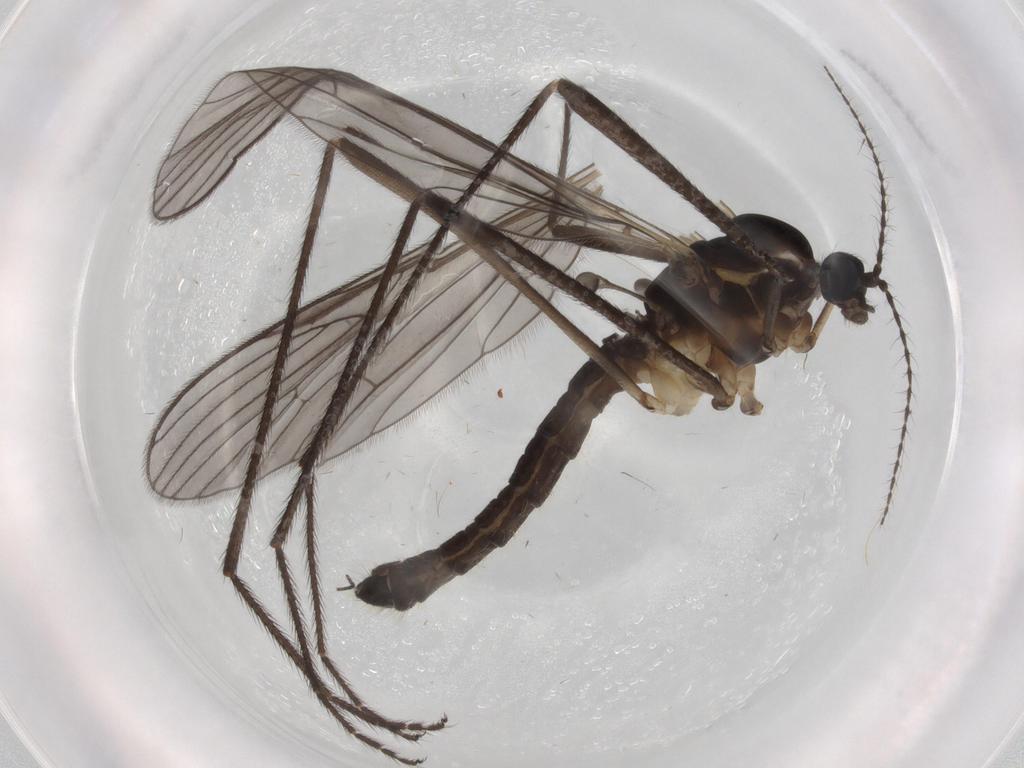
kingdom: Animalia
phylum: Arthropoda
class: Insecta
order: Diptera
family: Limoniidae
